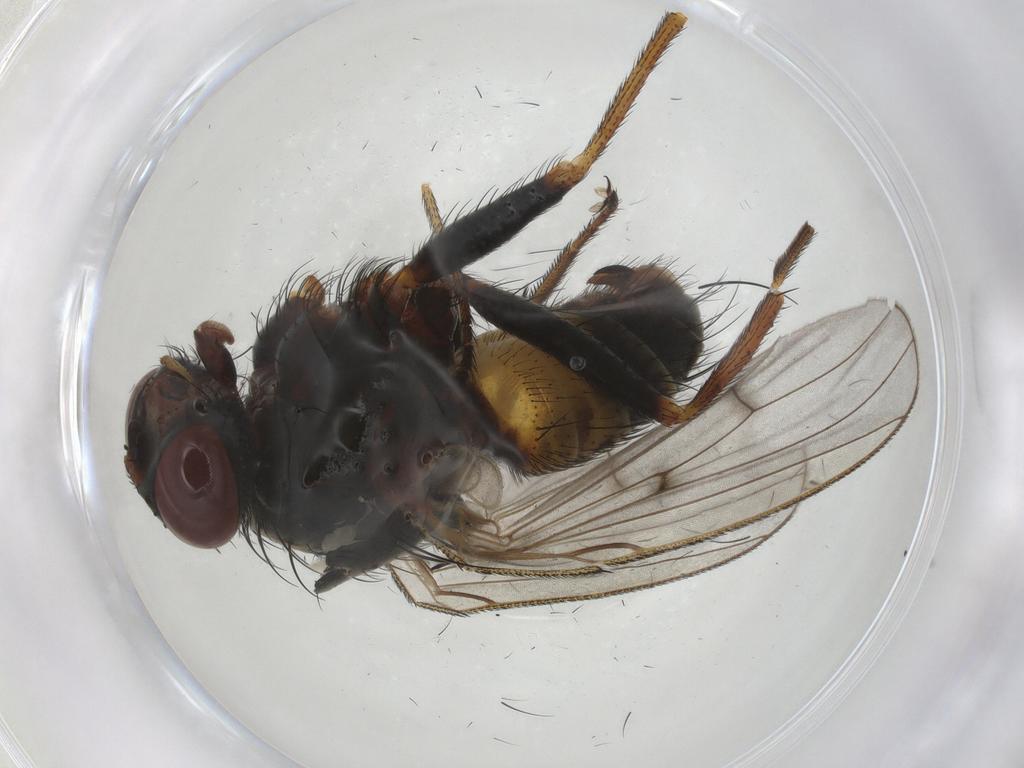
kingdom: Animalia
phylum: Arthropoda
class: Insecta
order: Diptera
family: Muscidae
